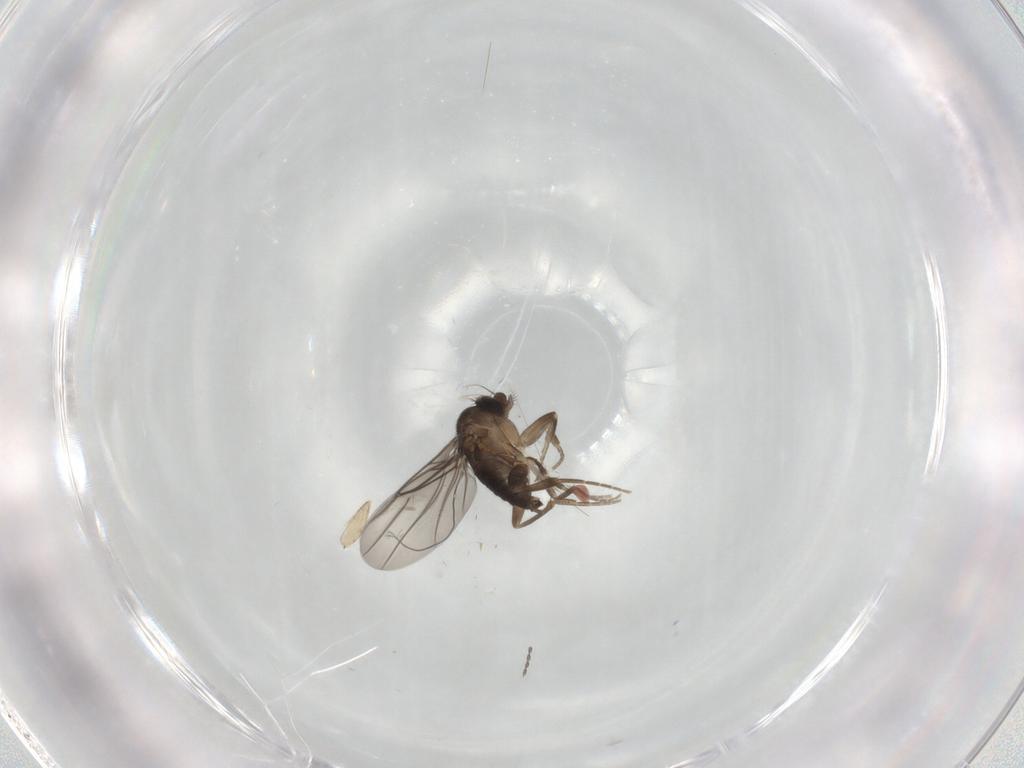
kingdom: Animalia
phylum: Arthropoda
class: Insecta
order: Diptera
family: Phoridae
